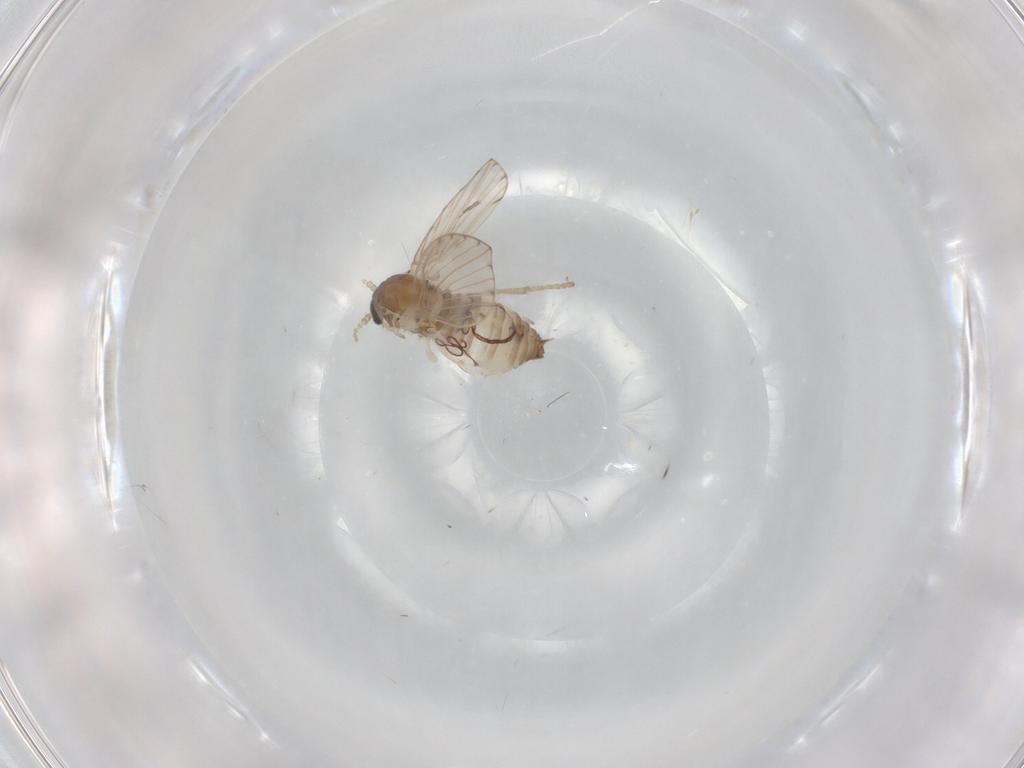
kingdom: Animalia
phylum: Arthropoda
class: Insecta
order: Diptera
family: Psychodidae
